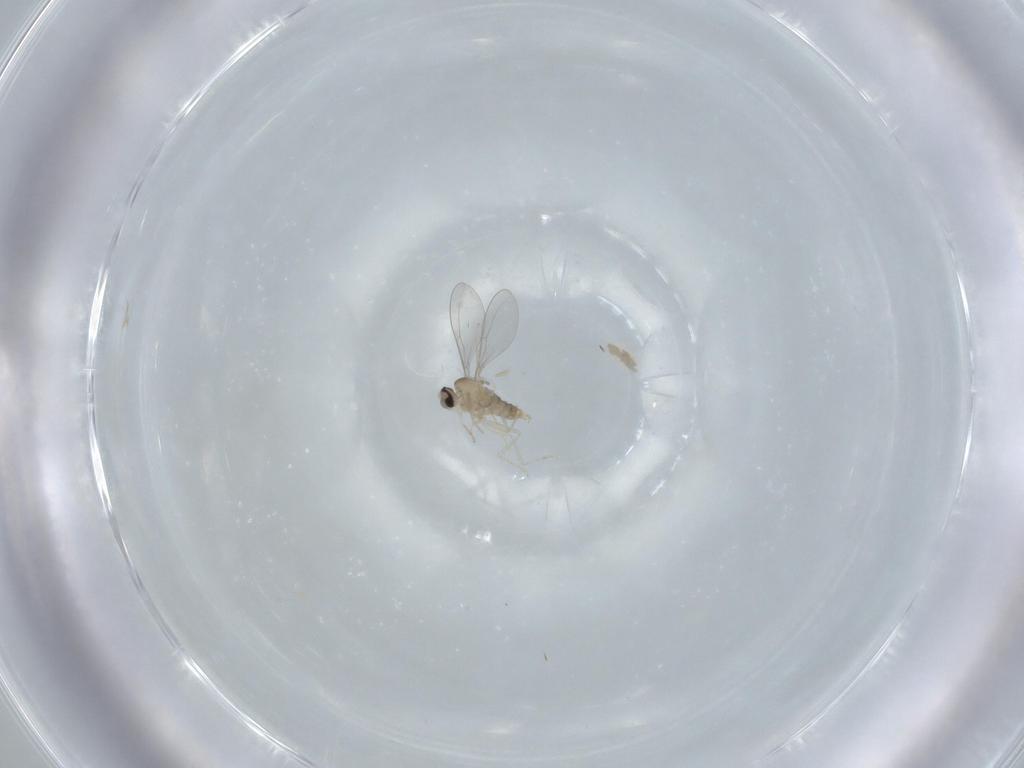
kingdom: Animalia
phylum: Arthropoda
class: Insecta
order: Diptera
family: Cecidomyiidae
